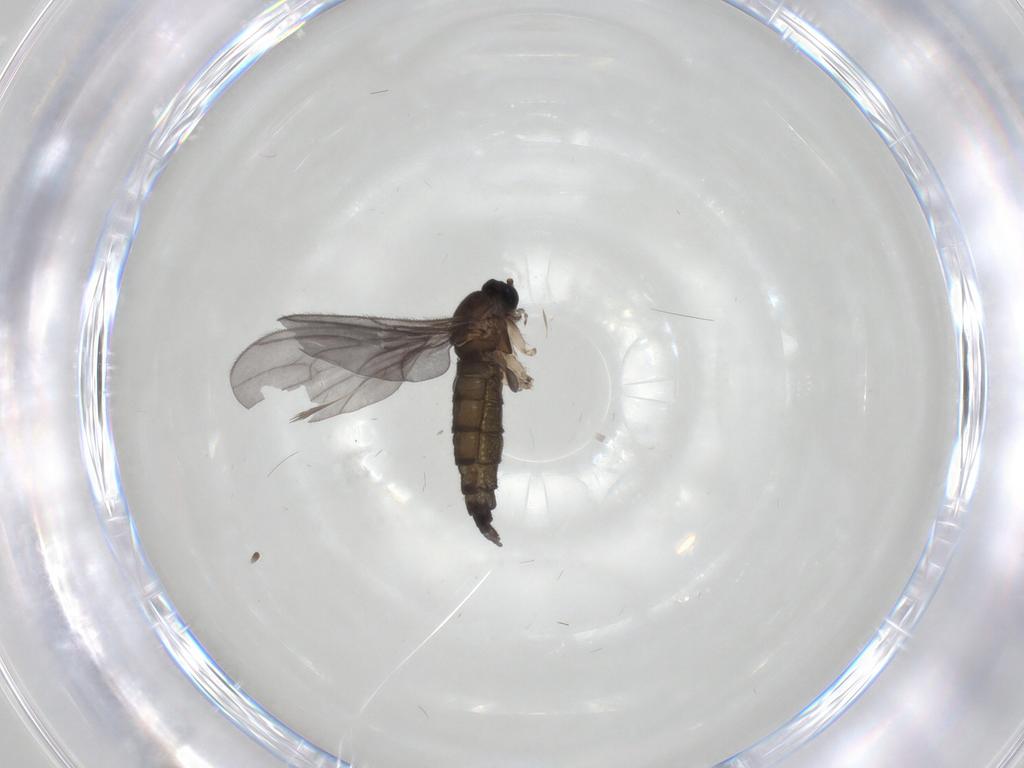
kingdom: Animalia
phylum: Arthropoda
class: Insecta
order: Diptera
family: Sciaridae
